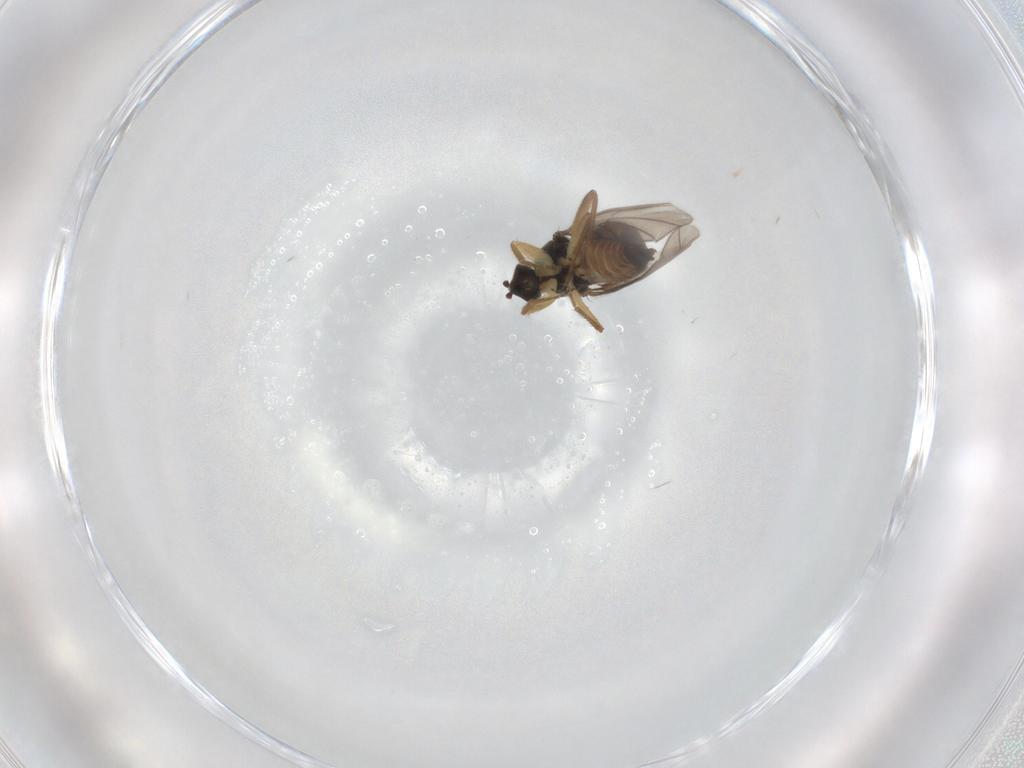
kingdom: Animalia
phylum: Arthropoda
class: Insecta
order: Diptera
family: Hybotidae
